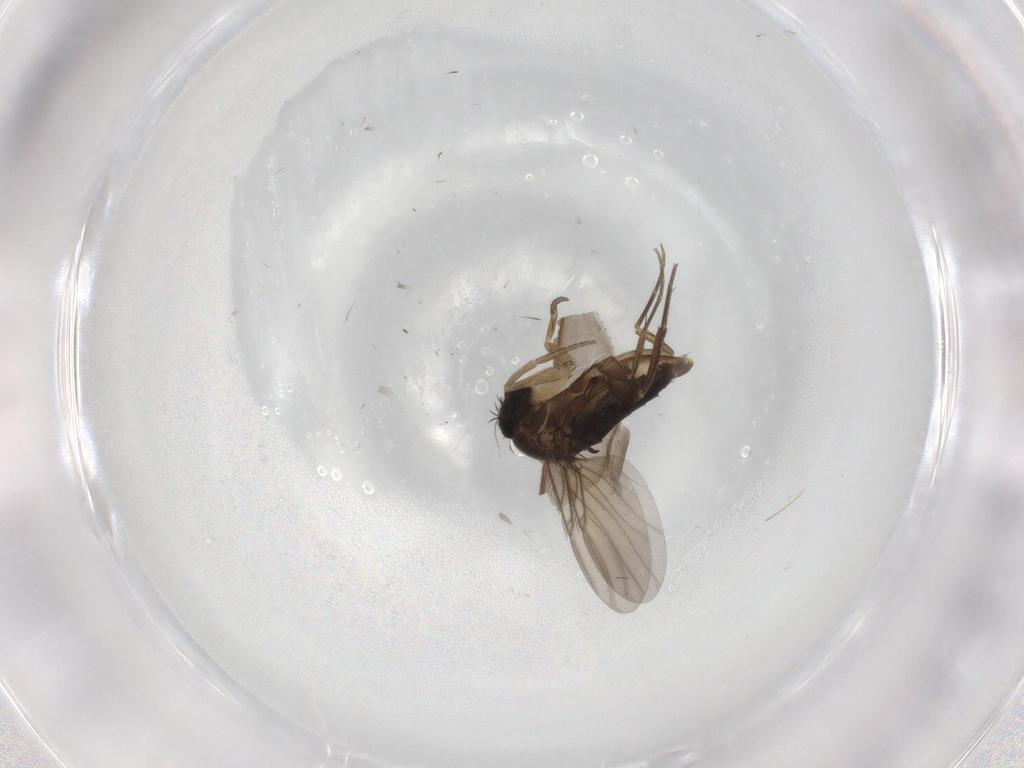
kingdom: Animalia
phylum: Arthropoda
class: Insecta
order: Diptera
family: Phoridae
